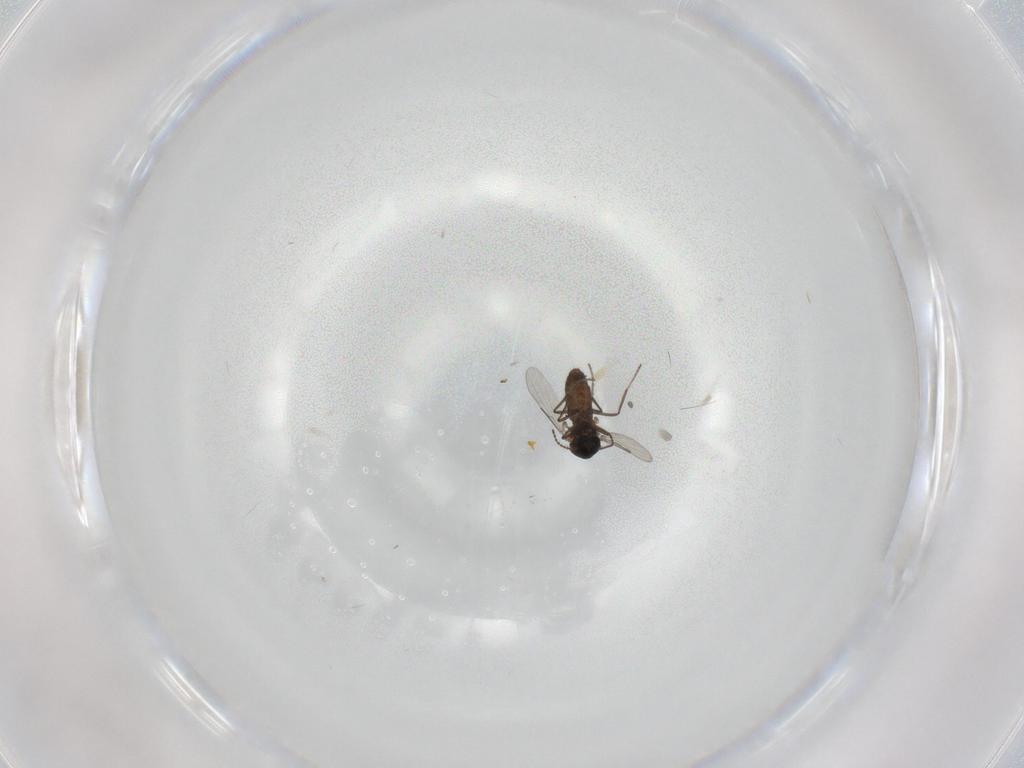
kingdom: Animalia
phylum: Arthropoda
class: Insecta
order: Diptera
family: Ceratopogonidae
